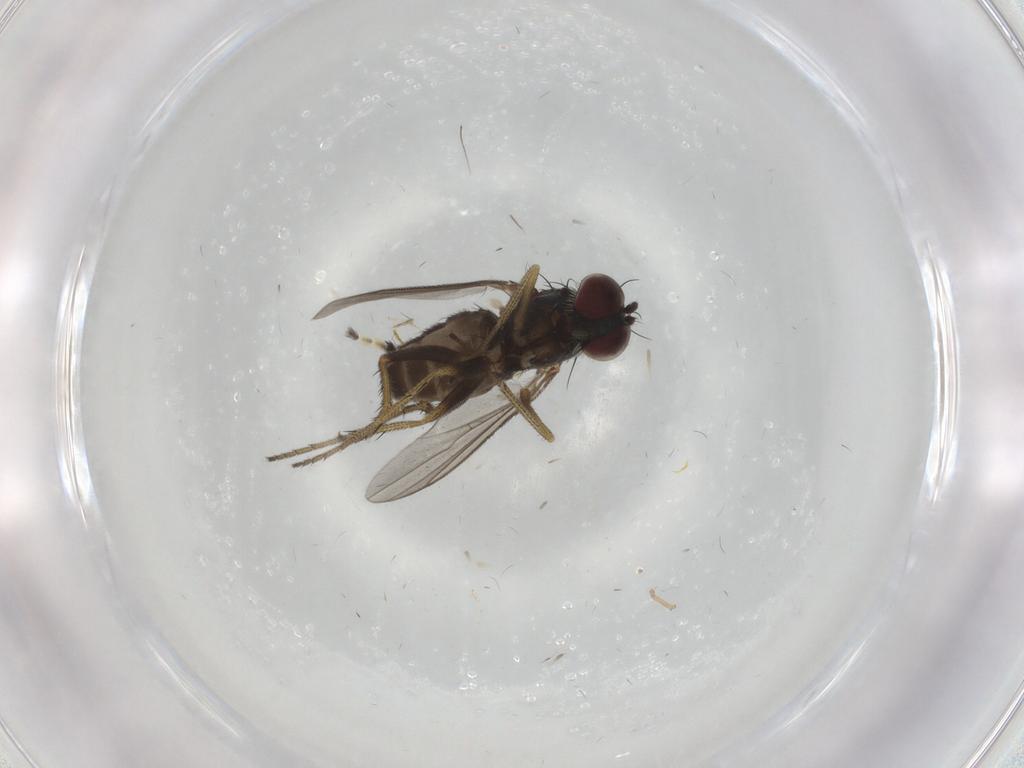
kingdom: Animalia
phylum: Arthropoda
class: Insecta
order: Diptera
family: Dolichopodidae
